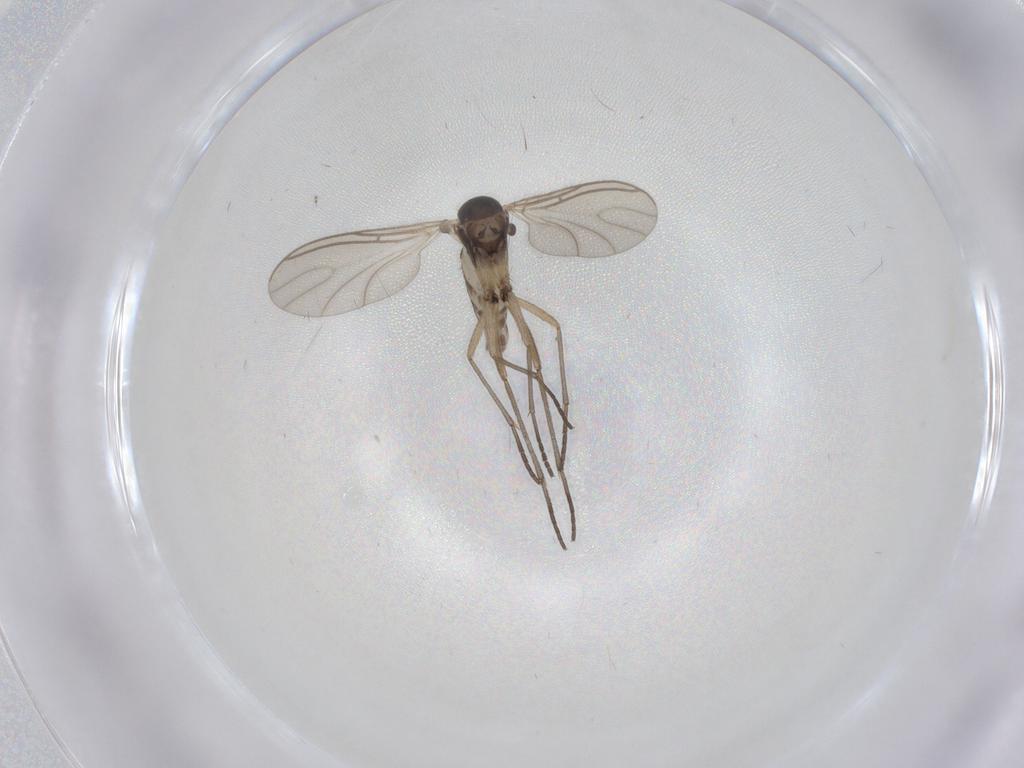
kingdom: Animalia
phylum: Arthropoda
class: Insecta
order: Diptera
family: Sciaridae
